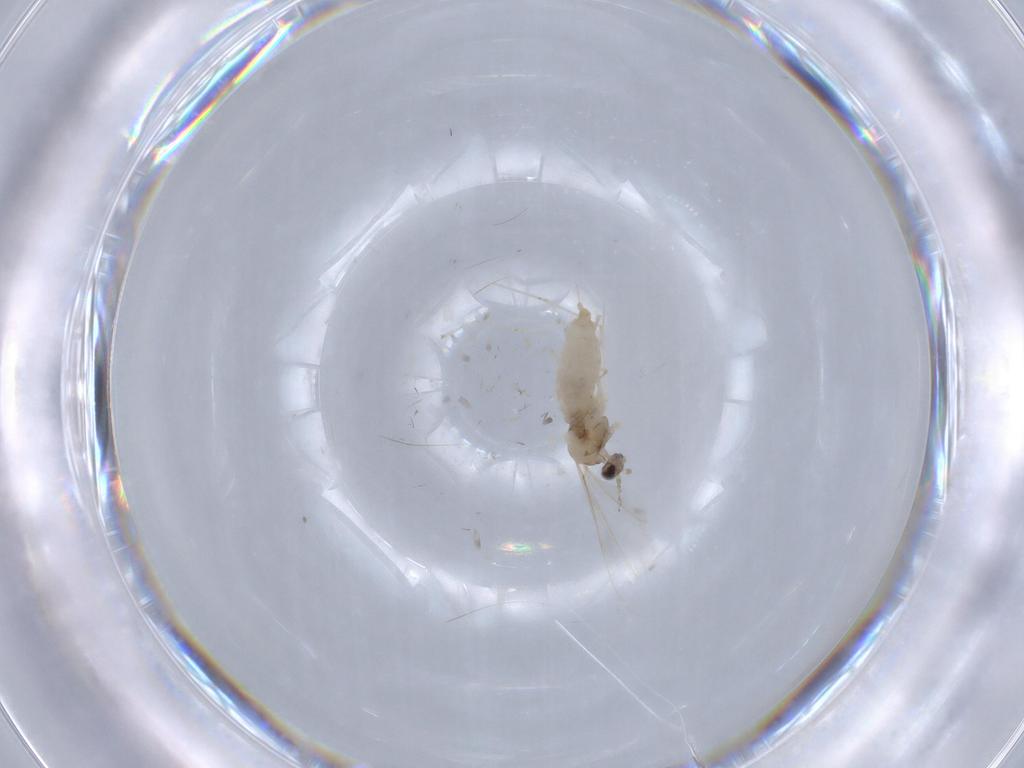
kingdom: Animalia
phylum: Arthropoda
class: Insecta
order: Diptera
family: Cecidomyiidae
